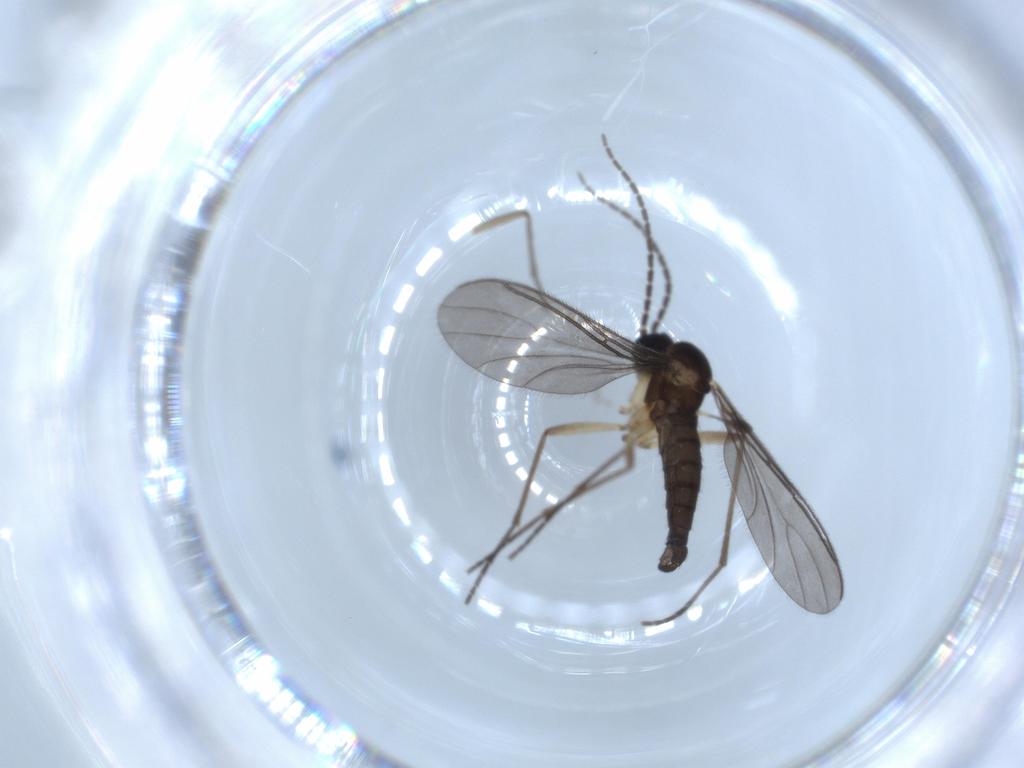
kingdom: Animalia
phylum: Arthropoda
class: Insecta
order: Diptera
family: Sciaridae
